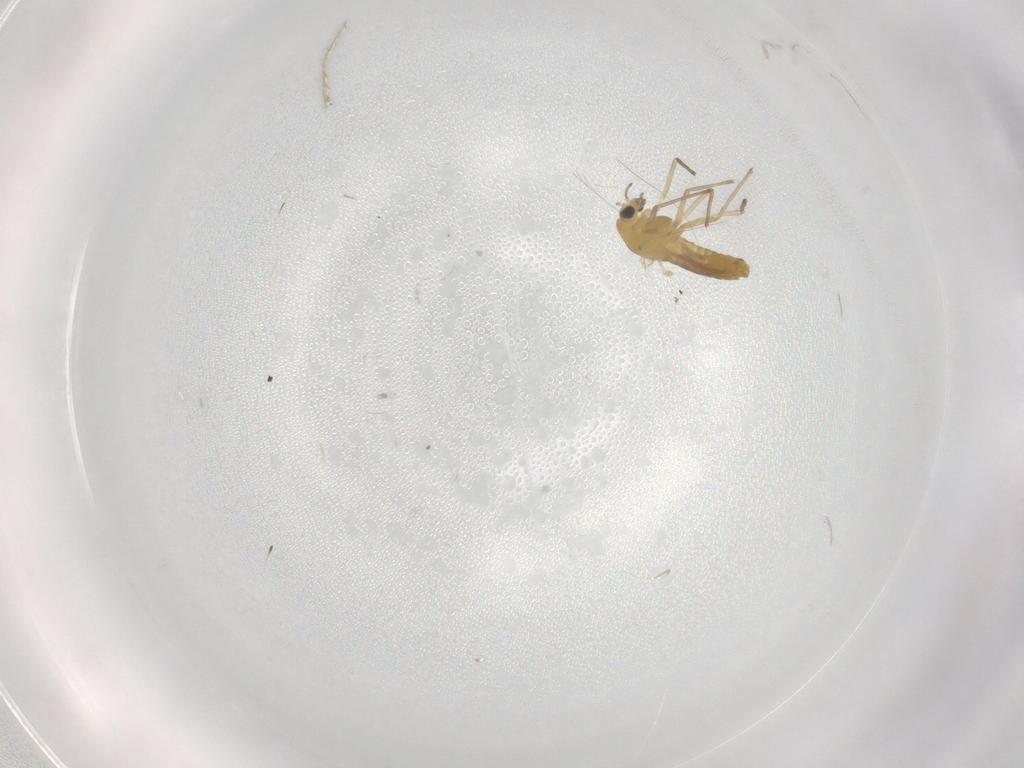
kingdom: Animalia
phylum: Arthropoda
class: Insecta
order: Diptera
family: Chironomidae
